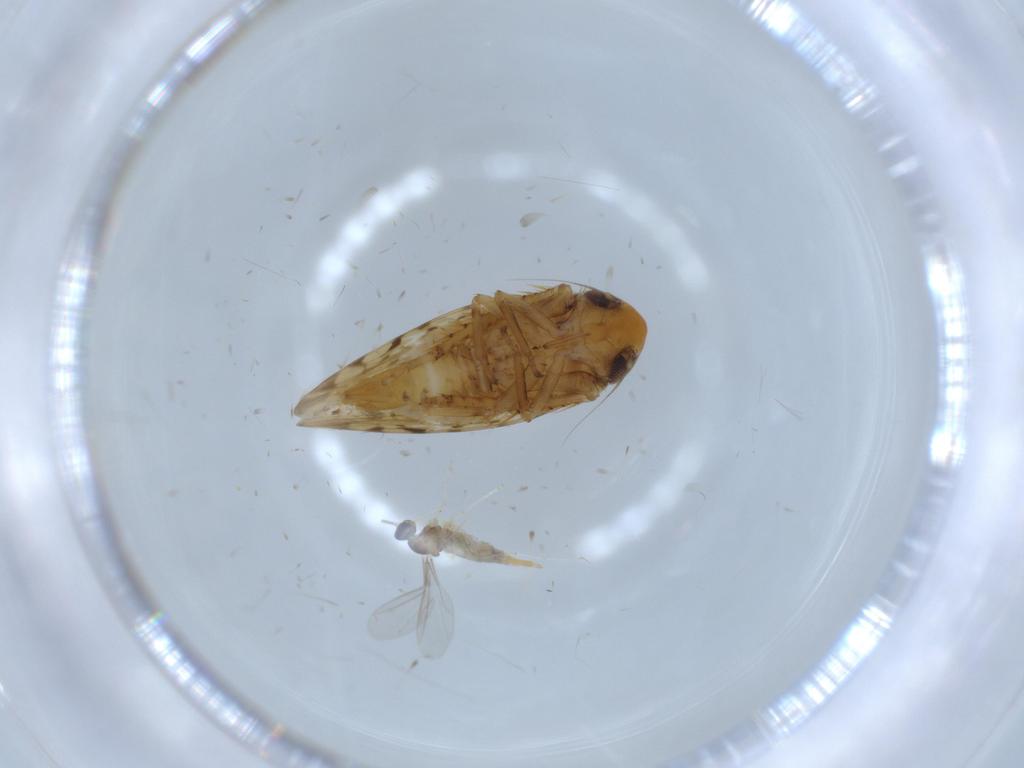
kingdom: Animalia
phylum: Arthropoda
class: Insecta
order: Diptera
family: Cecidomyiidae
